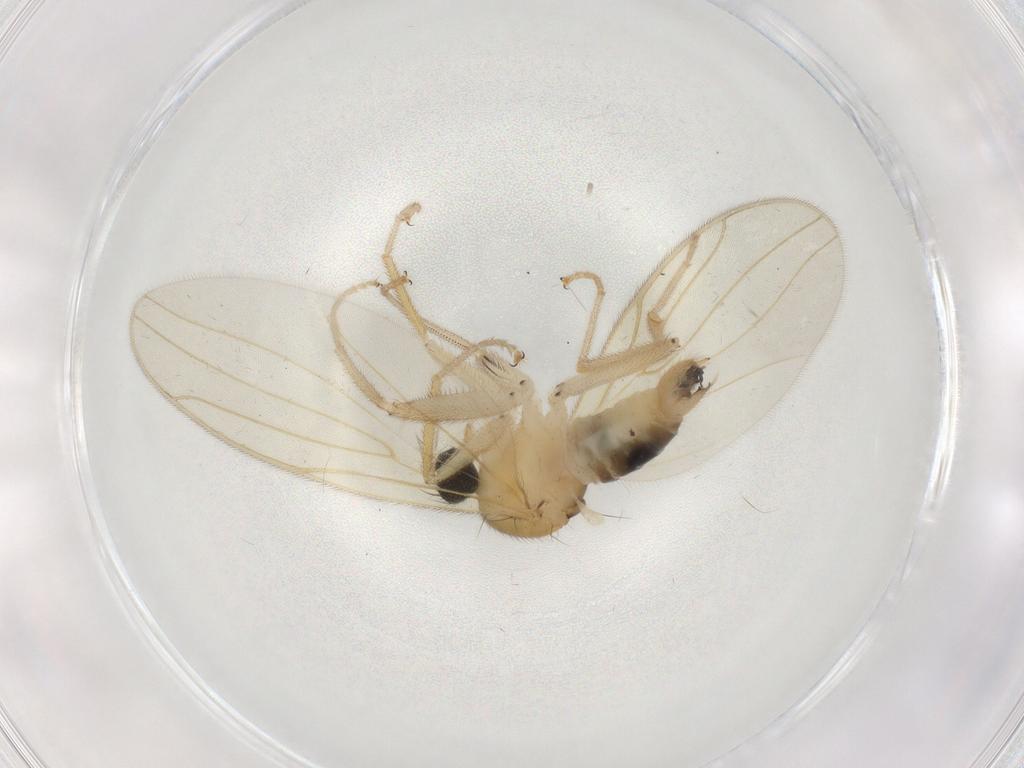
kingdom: Animalia
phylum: Arthropoda
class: Insecta
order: Diptera
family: Hybotidae
